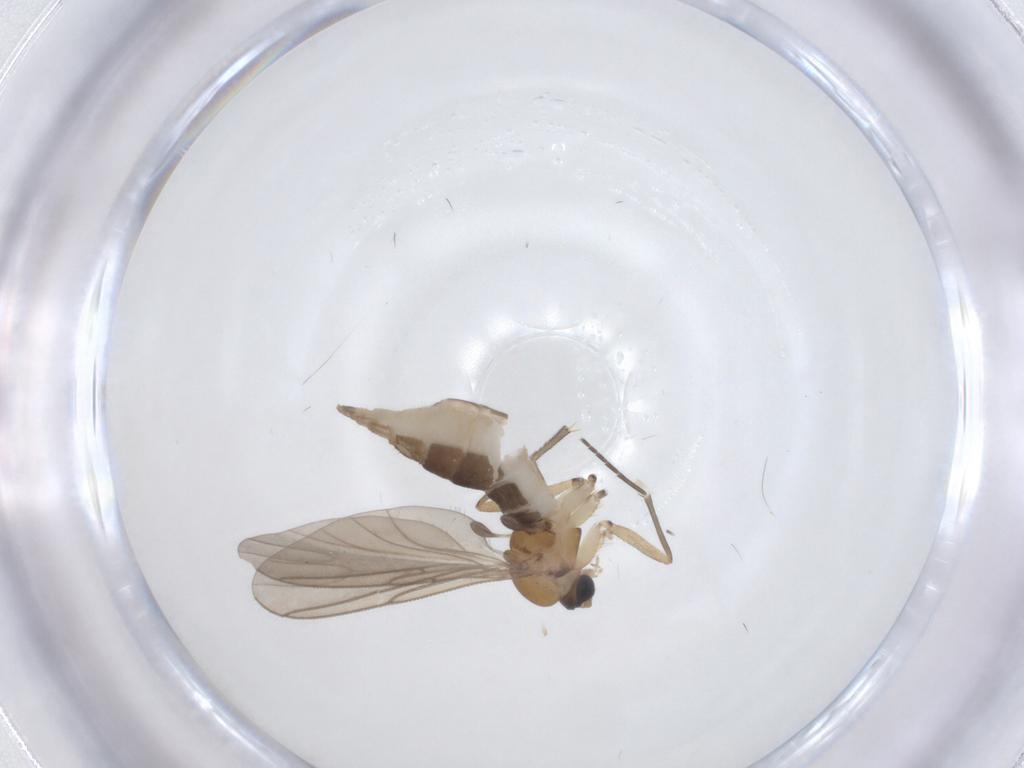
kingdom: Animalia
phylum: Arthropoda
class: Insecta
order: Diptera
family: Sciaridae
